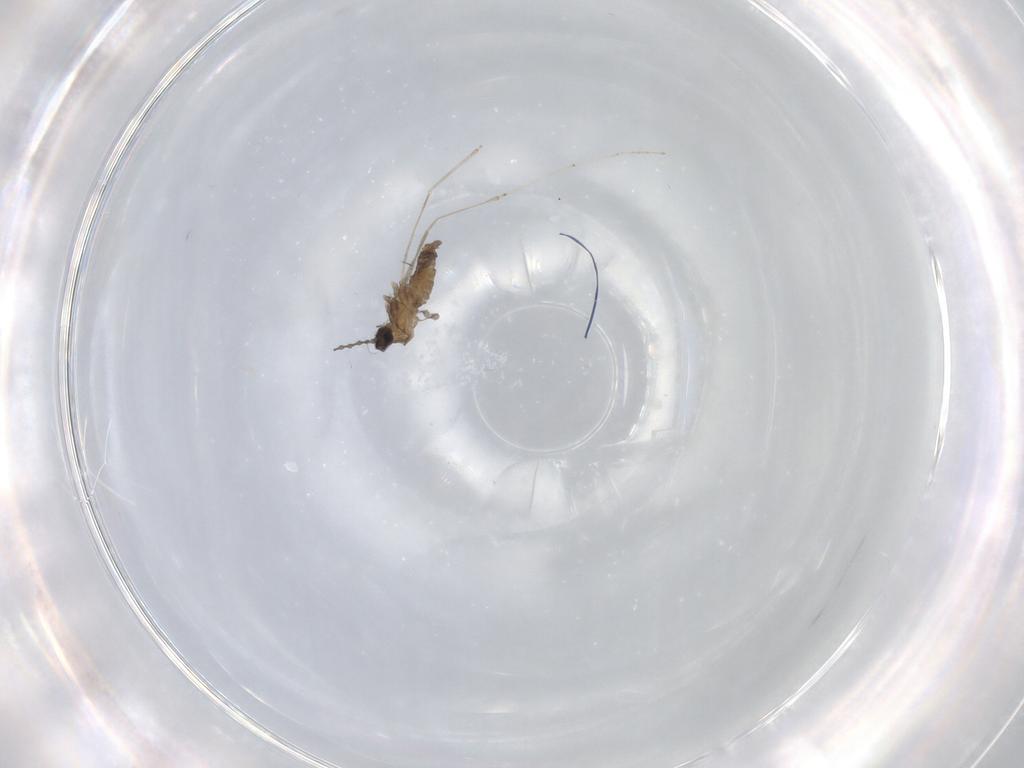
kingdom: Animalia
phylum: Arthropoda
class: Insecta
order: Diptera
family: Cecidomyiidae
